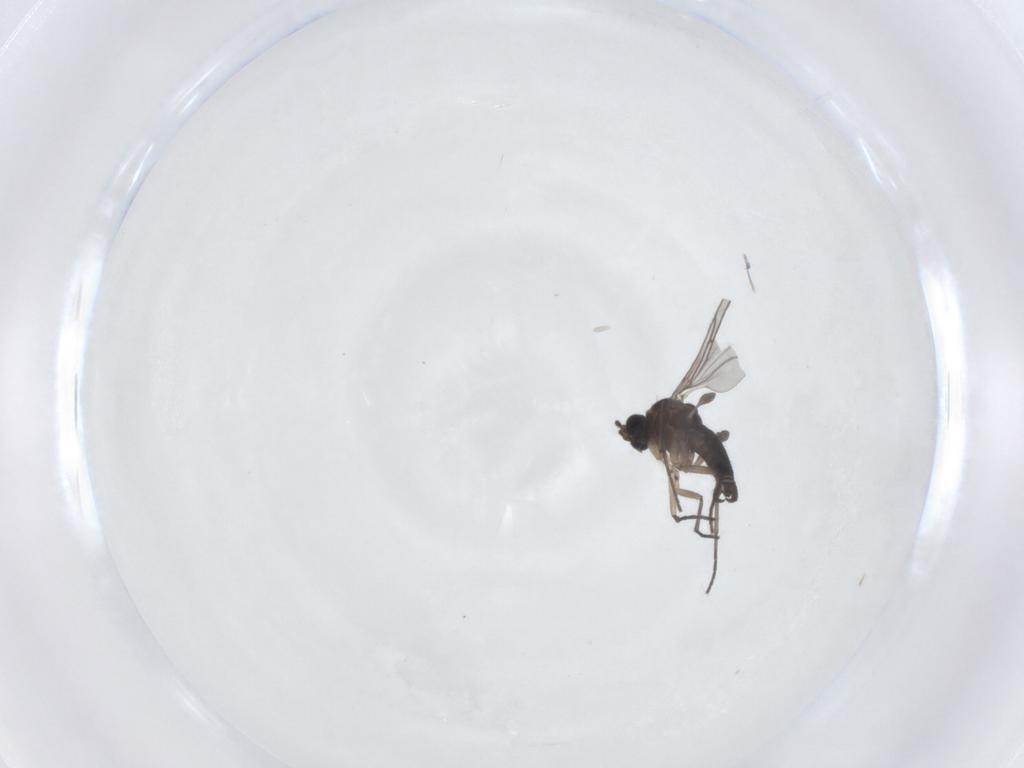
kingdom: Animalia
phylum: Arthropoda
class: Insecta
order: Diptera
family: Sciaridae
